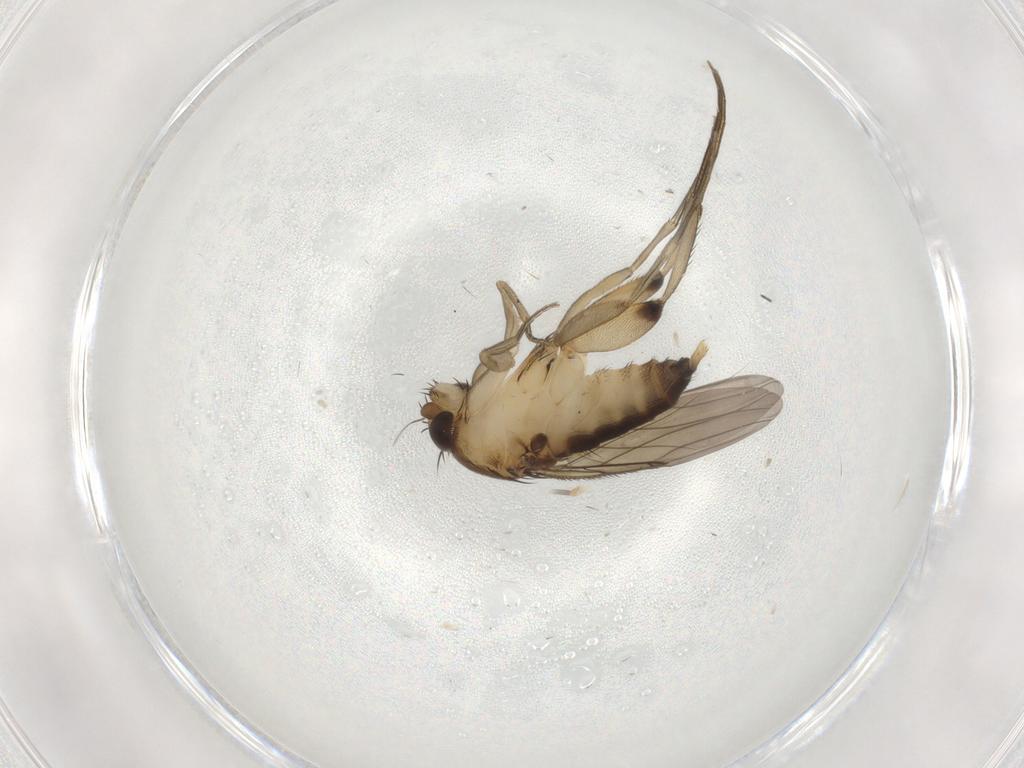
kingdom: Animalia
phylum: Arthropoda
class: Insecta
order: Diptera
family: Phoridae
